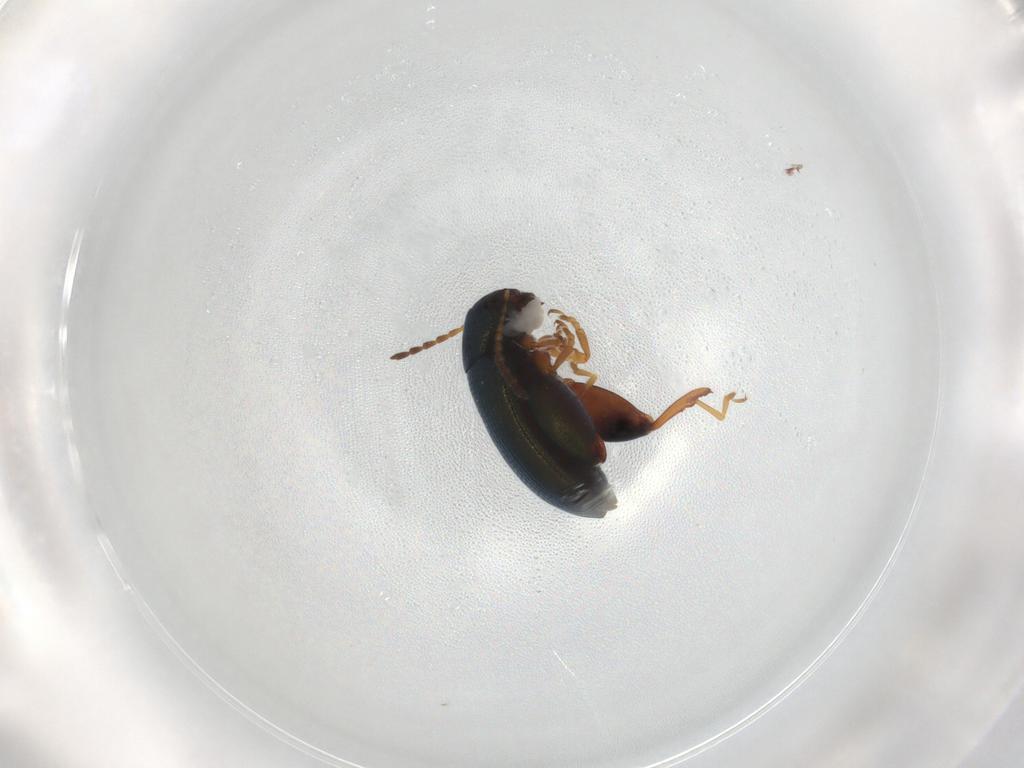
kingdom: Animalia
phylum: Arthropoda
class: Insecta
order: Coleoptera
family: Chrysomelidae
